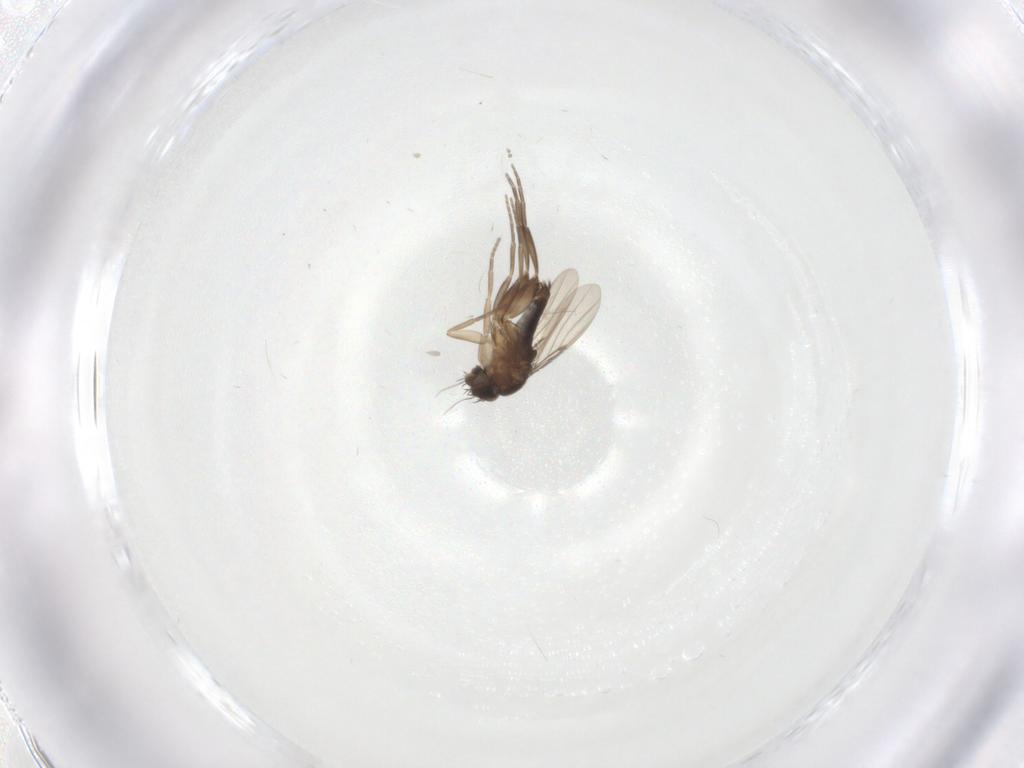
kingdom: Animalia
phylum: Arthropoda
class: Insecta
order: Diptera
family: Phoridae
